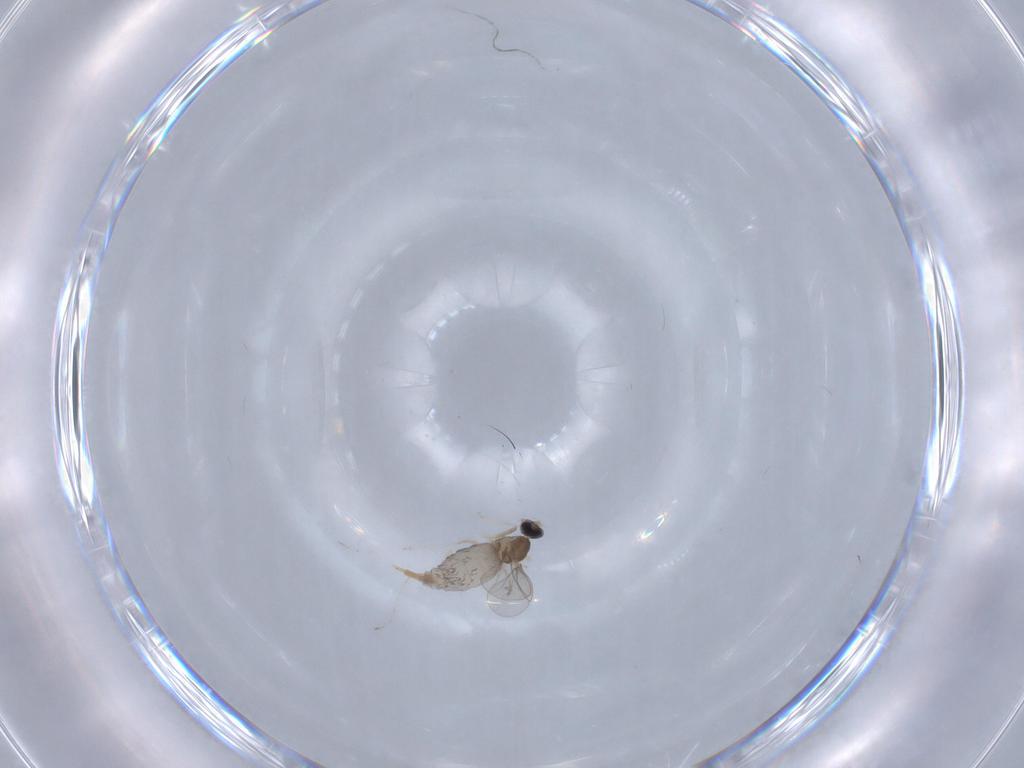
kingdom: Animalia
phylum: Arthropoda
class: Insecta
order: Diptera
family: Cecidomyiidae
